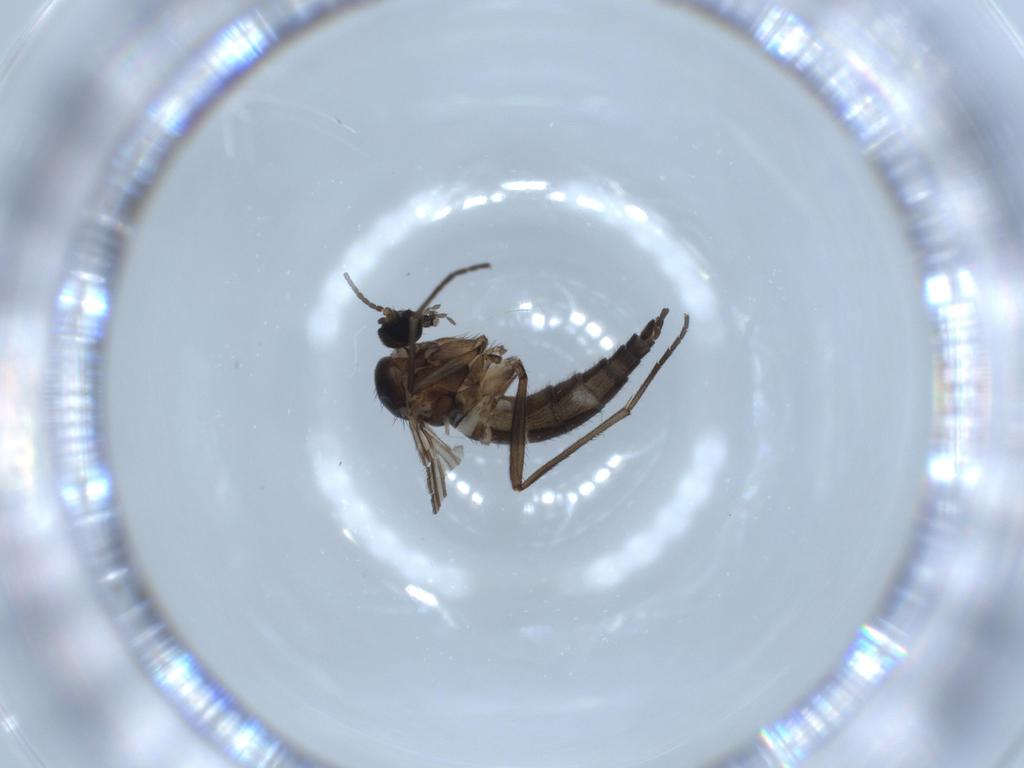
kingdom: Animalia
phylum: Arthropoda
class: Insecta
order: Diptera
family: Sciaridae
